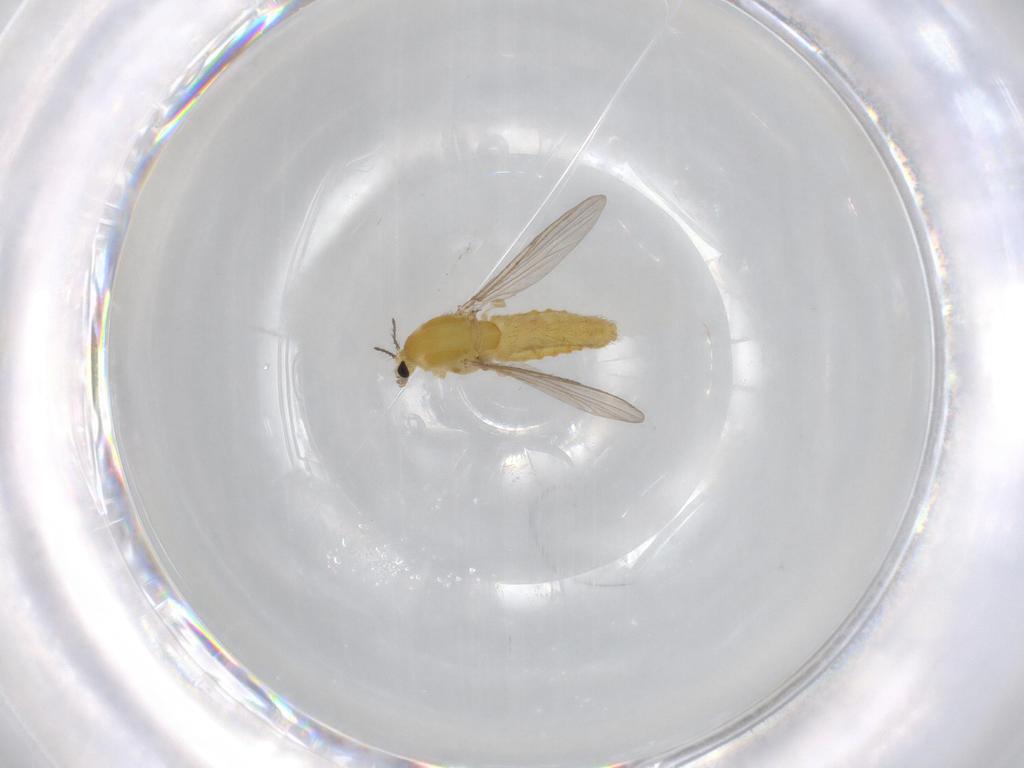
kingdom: Animalia
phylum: Arthropoda
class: Insecta
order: Diptera
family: Chironomidae
